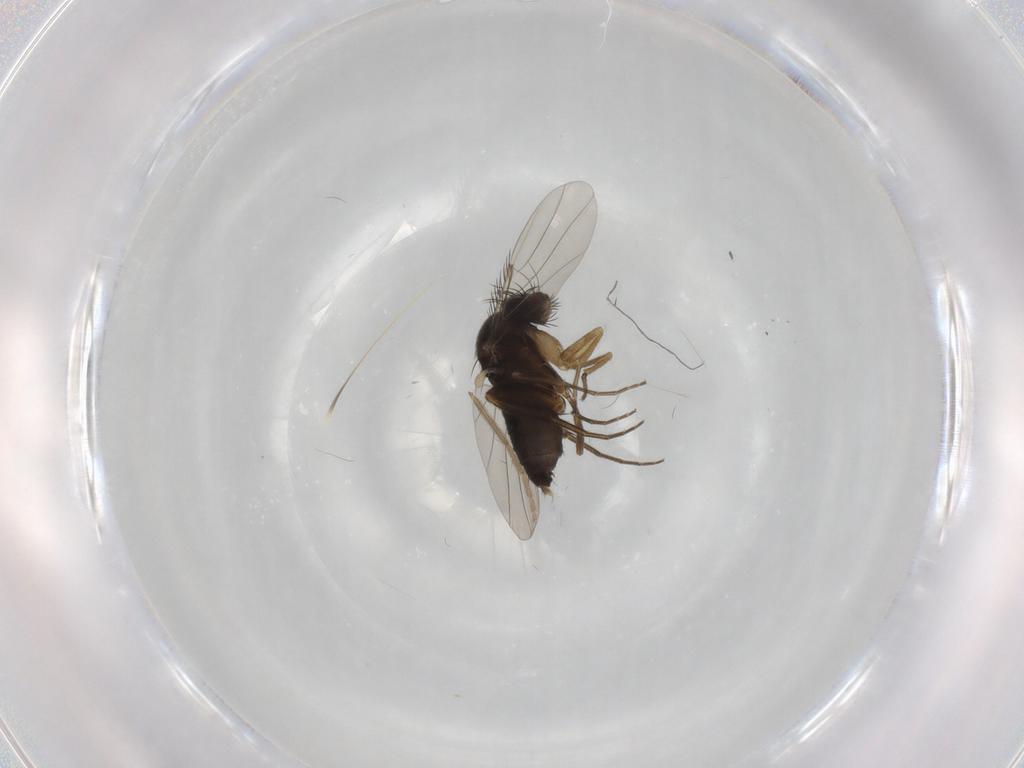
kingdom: Animalia
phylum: Arthropoda
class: Insecta
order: Diptera
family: Phoridae
